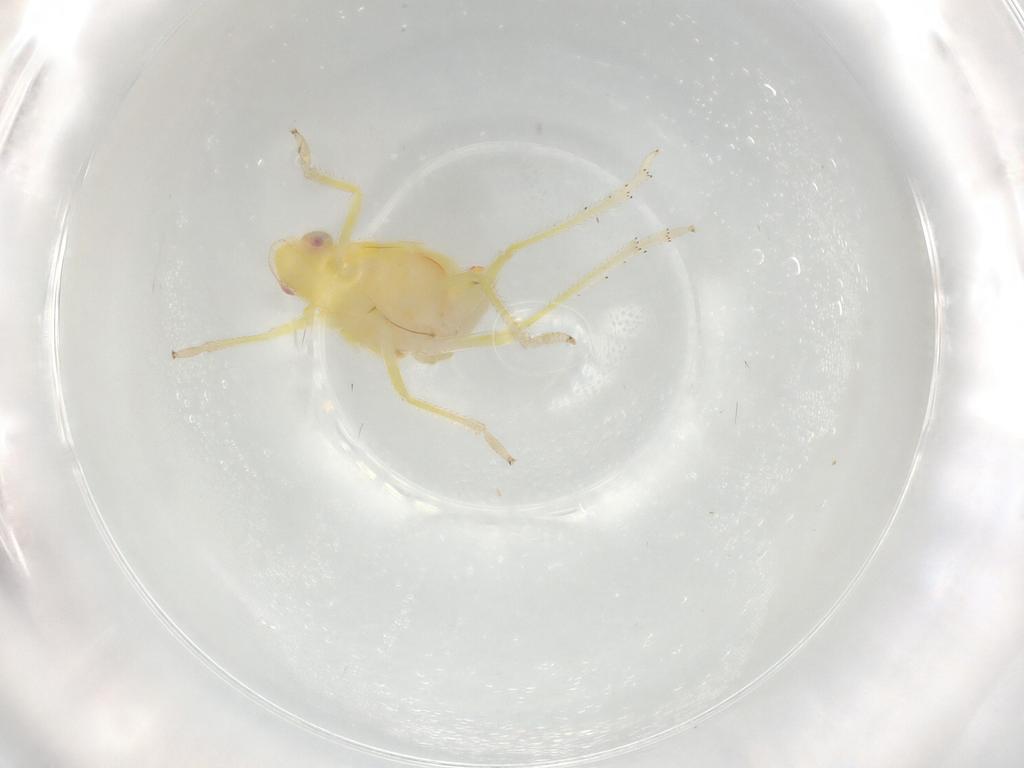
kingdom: Animalia
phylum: Arthropoda
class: Insecta
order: Hemiptera
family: Tropiduchidae
